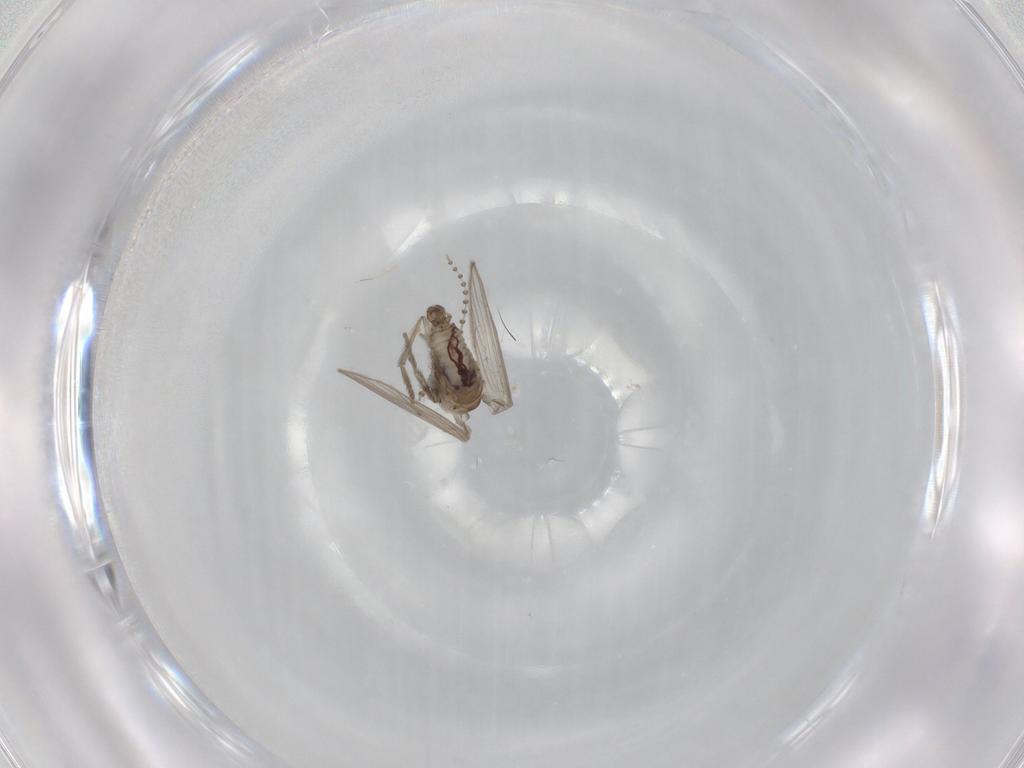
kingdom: Animalia
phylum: Arthropoda
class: Insecta
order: Diptera
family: Psychodidae
